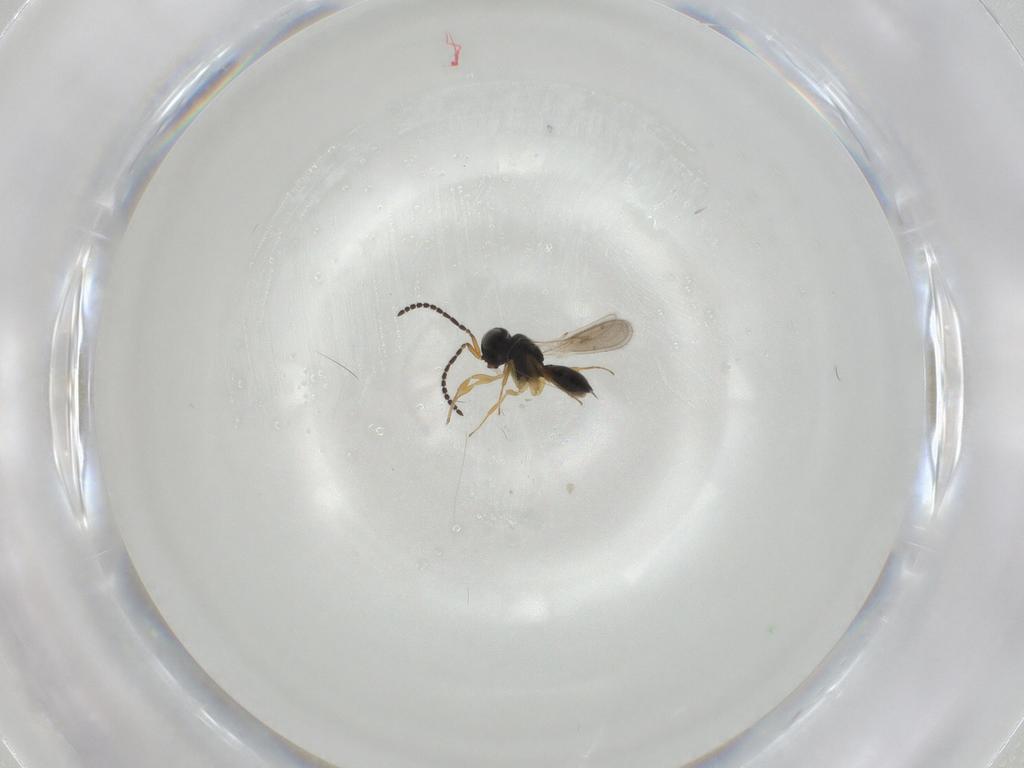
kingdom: Animalia
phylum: Arthropoda
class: Insecta
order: Hymenoptera
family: Scelionidae
